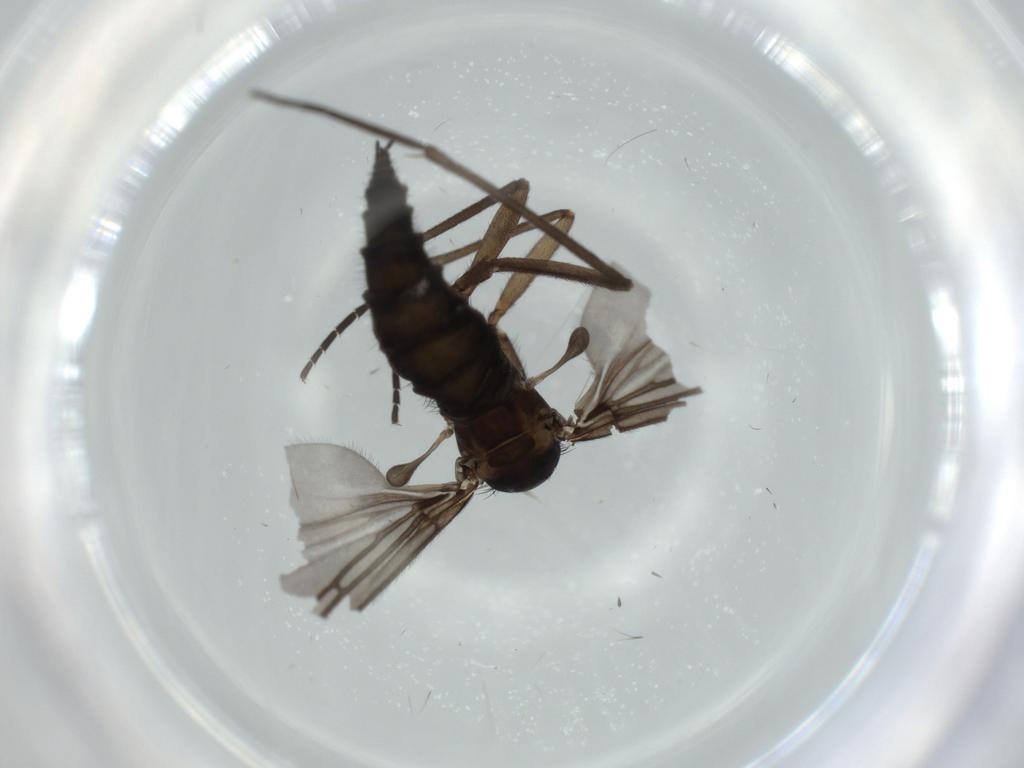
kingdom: Animalia
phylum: Arthropoda
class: Insecta
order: Diptera
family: Sciaridae
